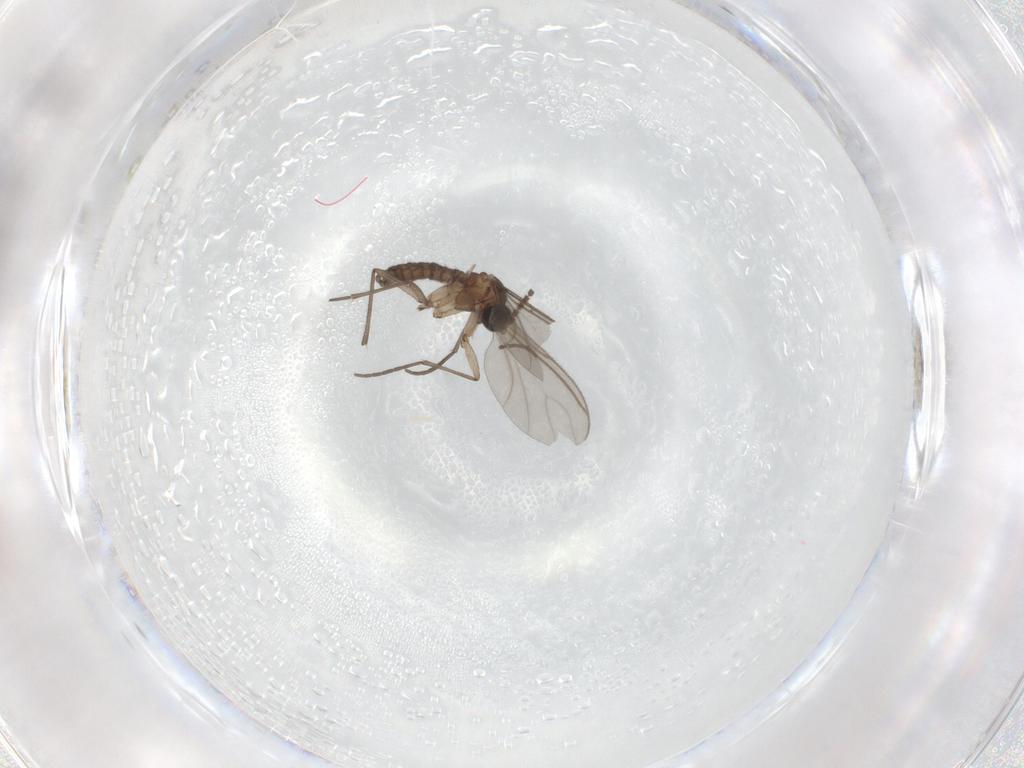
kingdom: Animalia
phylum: Arthropoda
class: Insecta
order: Diptera
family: Sciaridae
